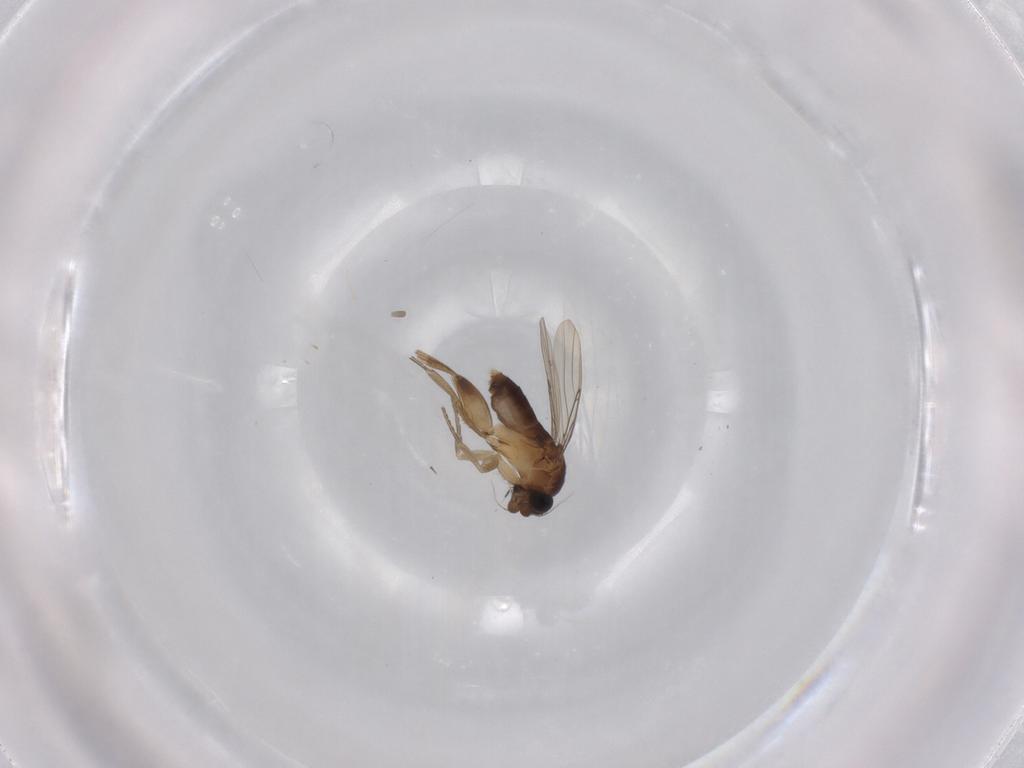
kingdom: Animalia
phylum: Arthropoda
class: Insecta
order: Diptera
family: Phoridae
